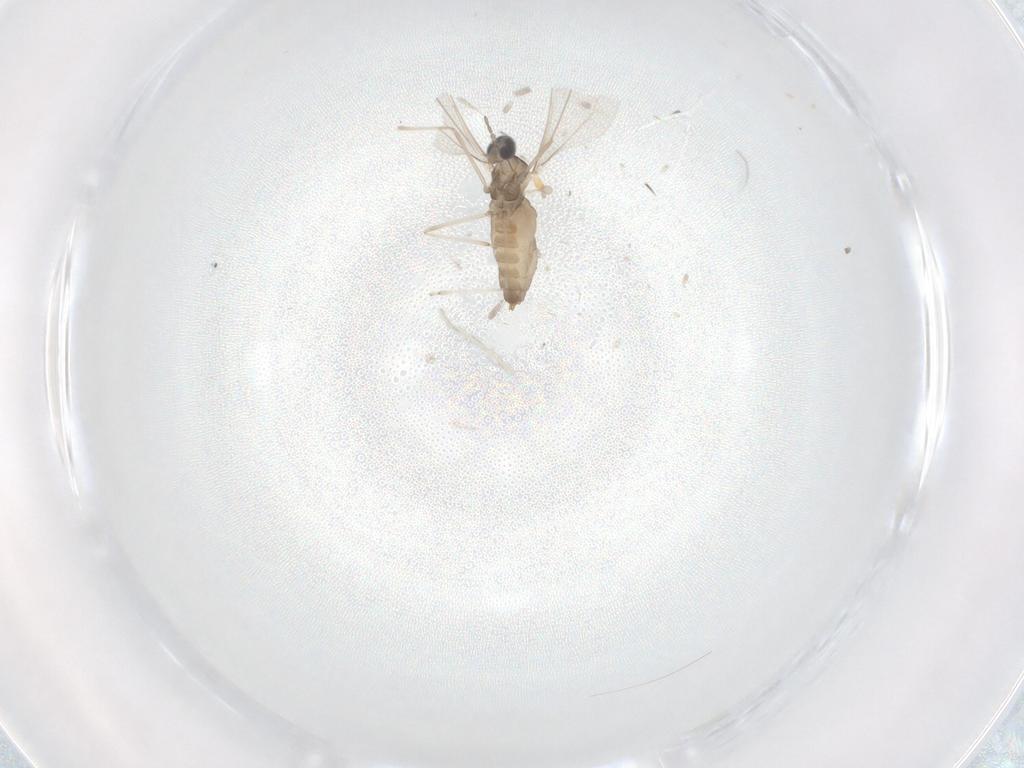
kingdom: Animalia
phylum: Arthropoda
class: Insecta
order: Diptera
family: Cecidomyiidae
